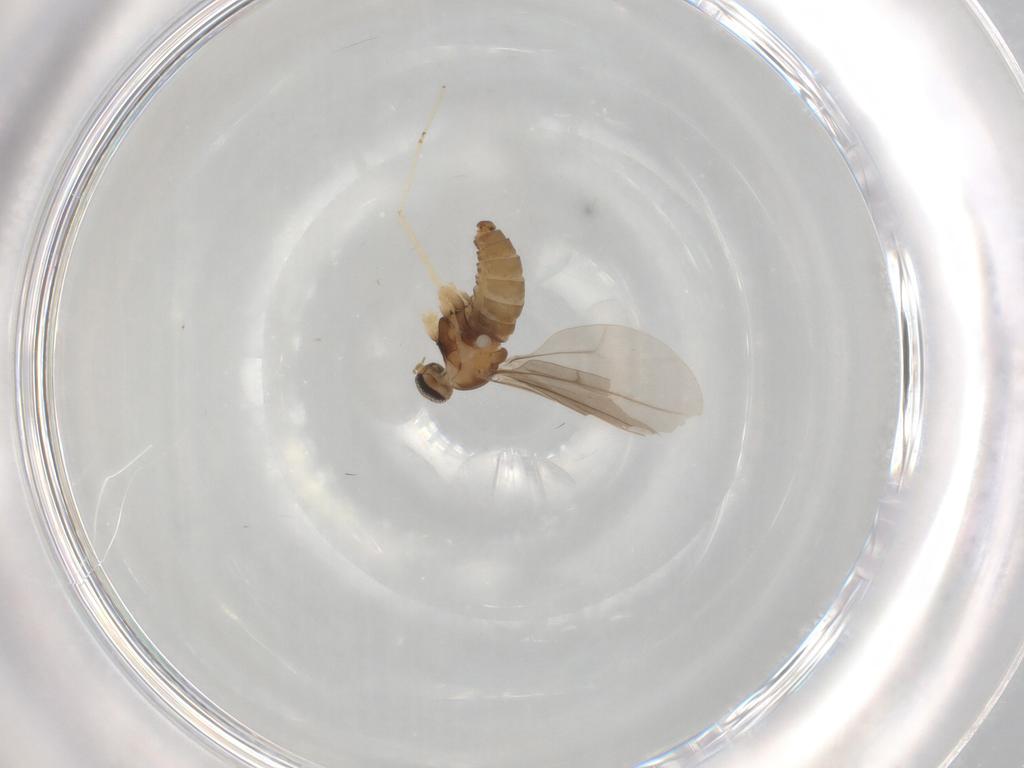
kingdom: Animalia
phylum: Arthropoda
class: Insecta
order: Diptera
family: Cecidomyiidae
